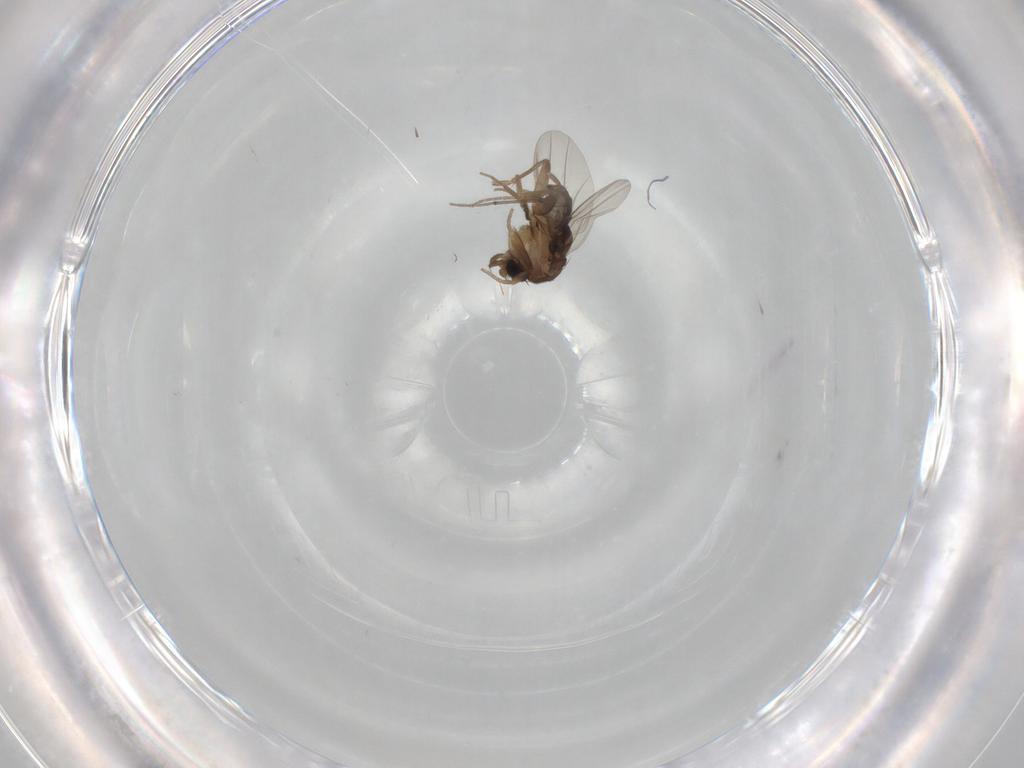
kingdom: Animalia
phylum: Arthropoda
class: Insecta
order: Diptera
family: Phoridae
